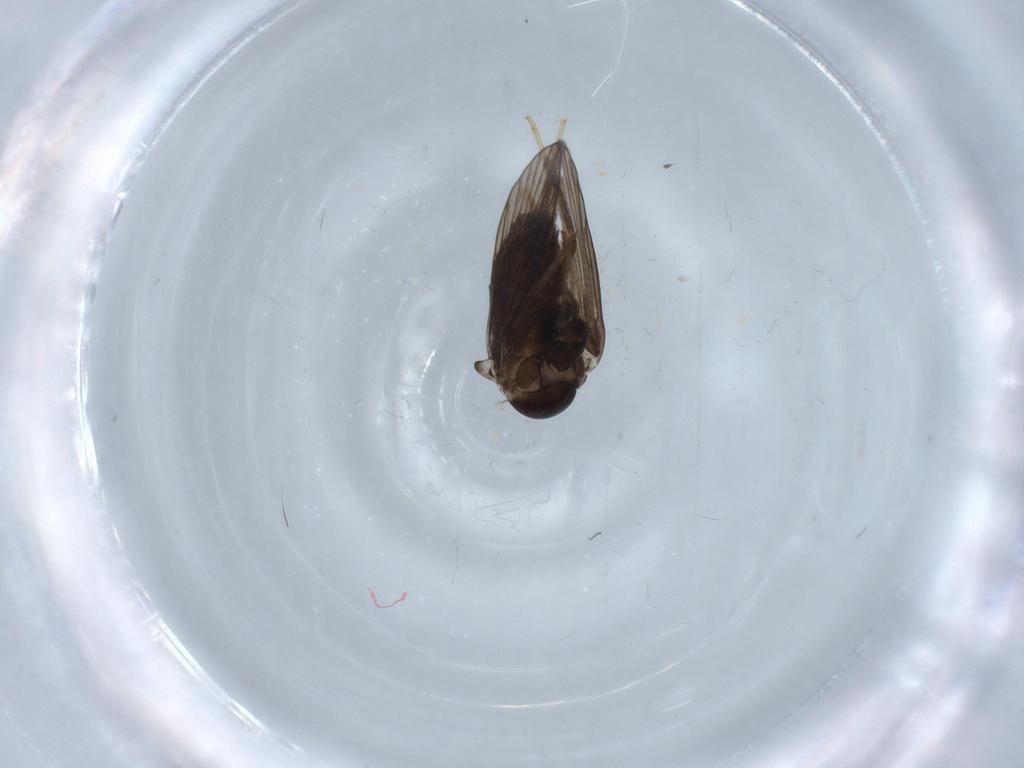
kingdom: Animalia
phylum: Arthropoda
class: Insecta
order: Diptera
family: Psychodidae
